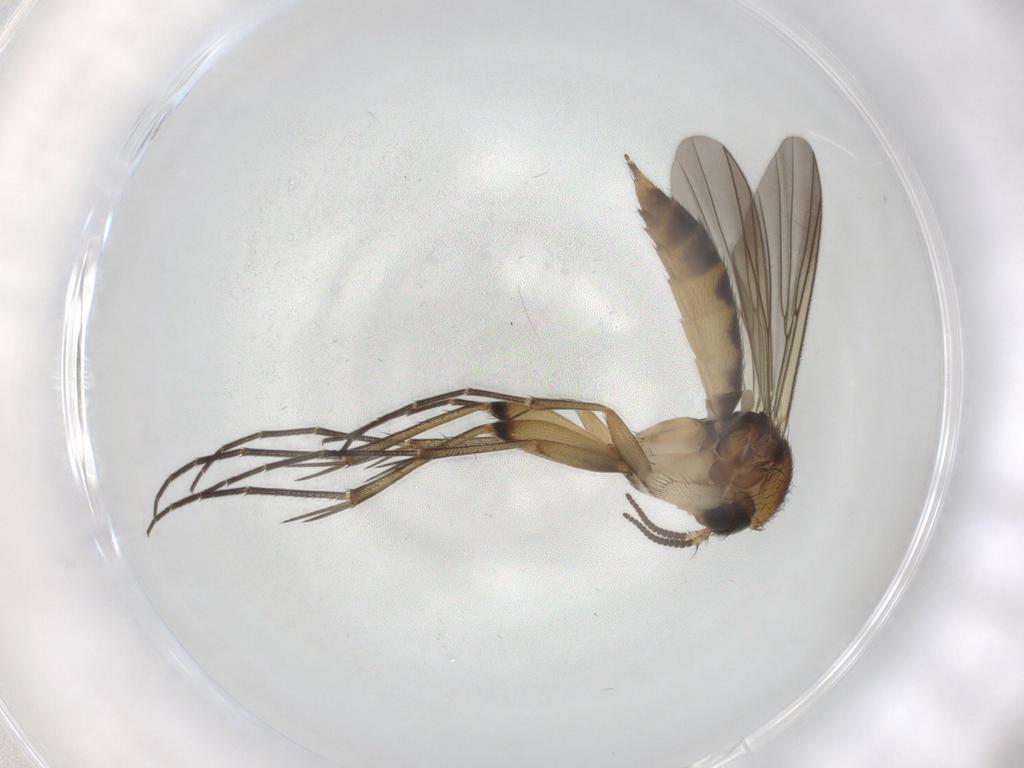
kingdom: Animalia
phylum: Arthropoda
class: Insecta
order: Diptera
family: Mycetophilidae
